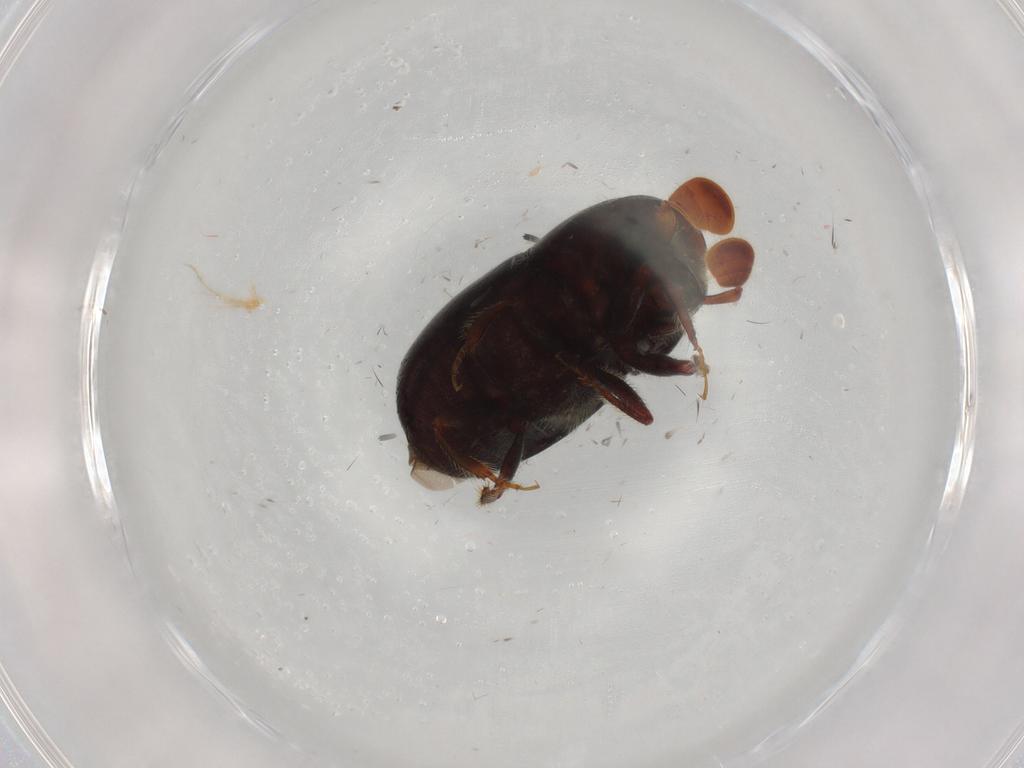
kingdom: Animalia
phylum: Arthropoda
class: Insecta
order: Coleoptera
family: Curculionidae
